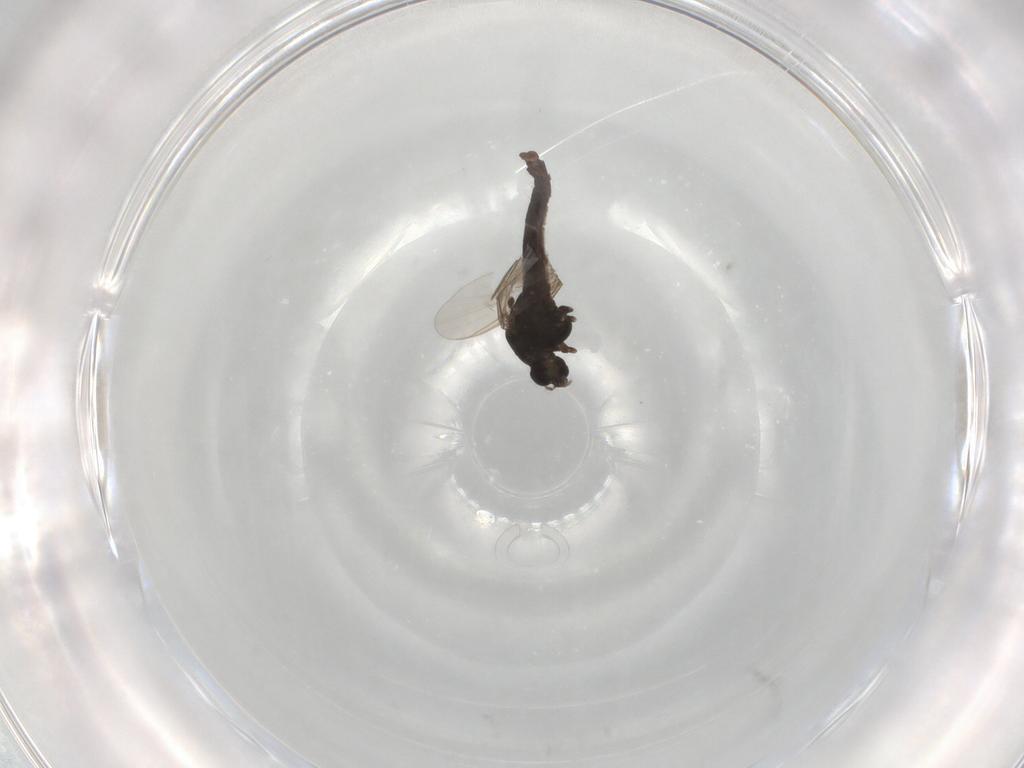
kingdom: Animalia
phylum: Arthropoda
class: Insecta
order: Diptera
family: Chironomidae
